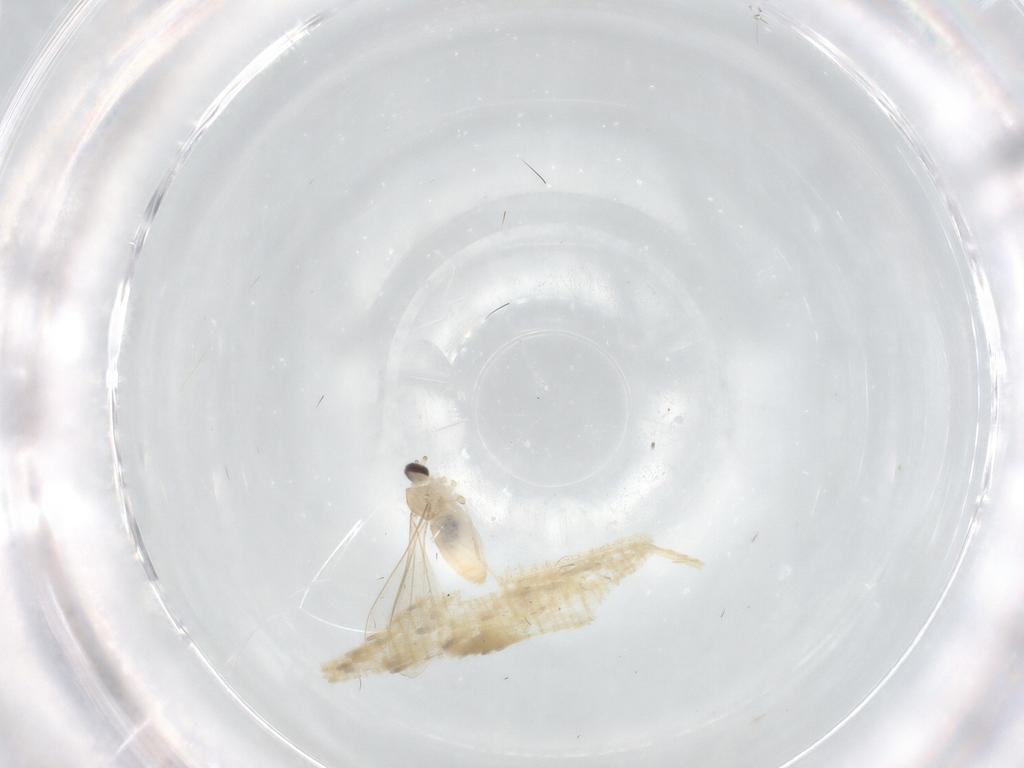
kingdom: Animalia
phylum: Arthropoda
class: Insecta
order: Diptera
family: Cecidomyiidae
